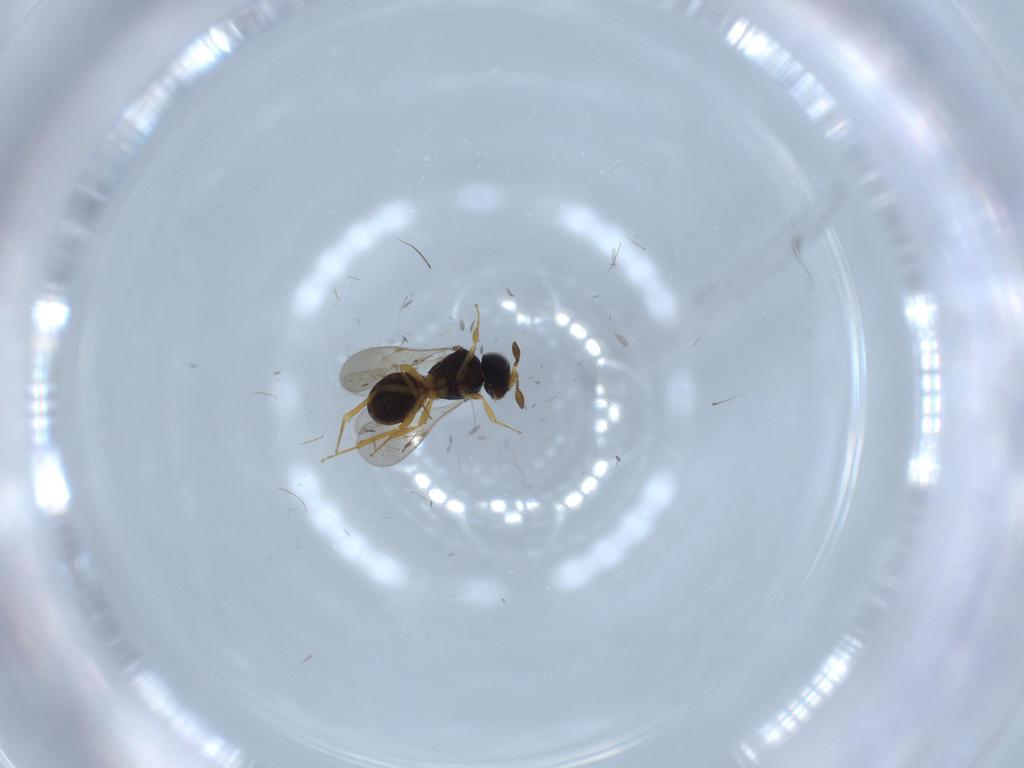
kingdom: Animalia
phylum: Arthropoda
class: Insecta
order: Hymenoptera
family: Scelionidae
